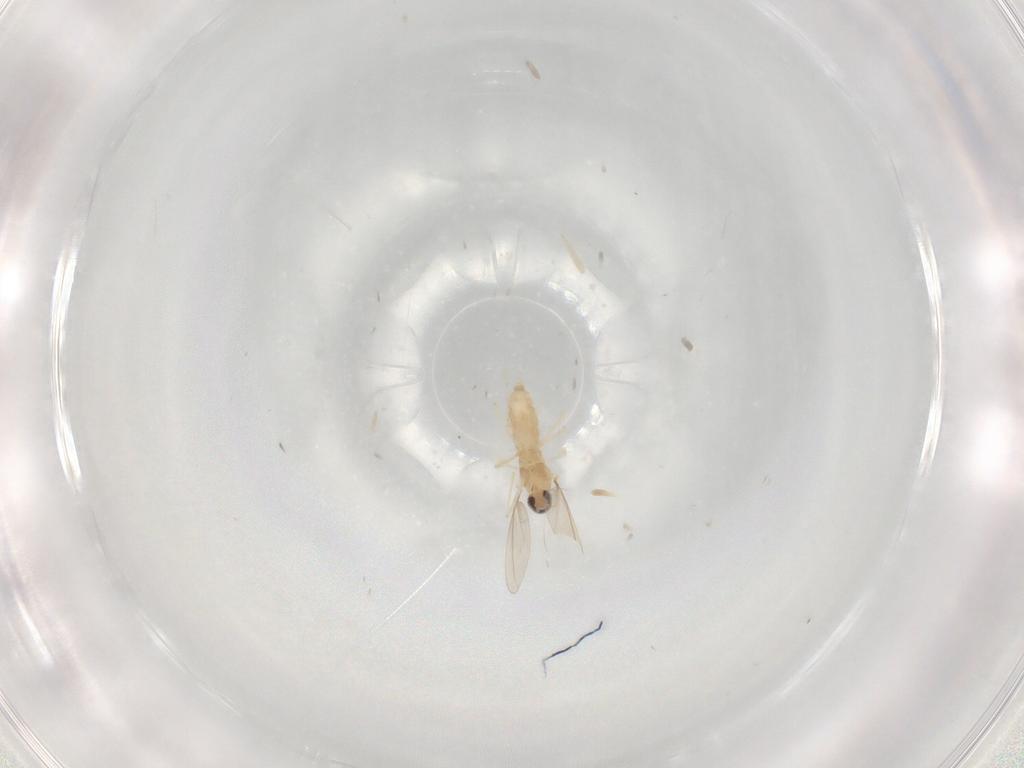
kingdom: Animalia
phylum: Arthropoda
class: Insecta
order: Diptera
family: Cecidomyiidae
